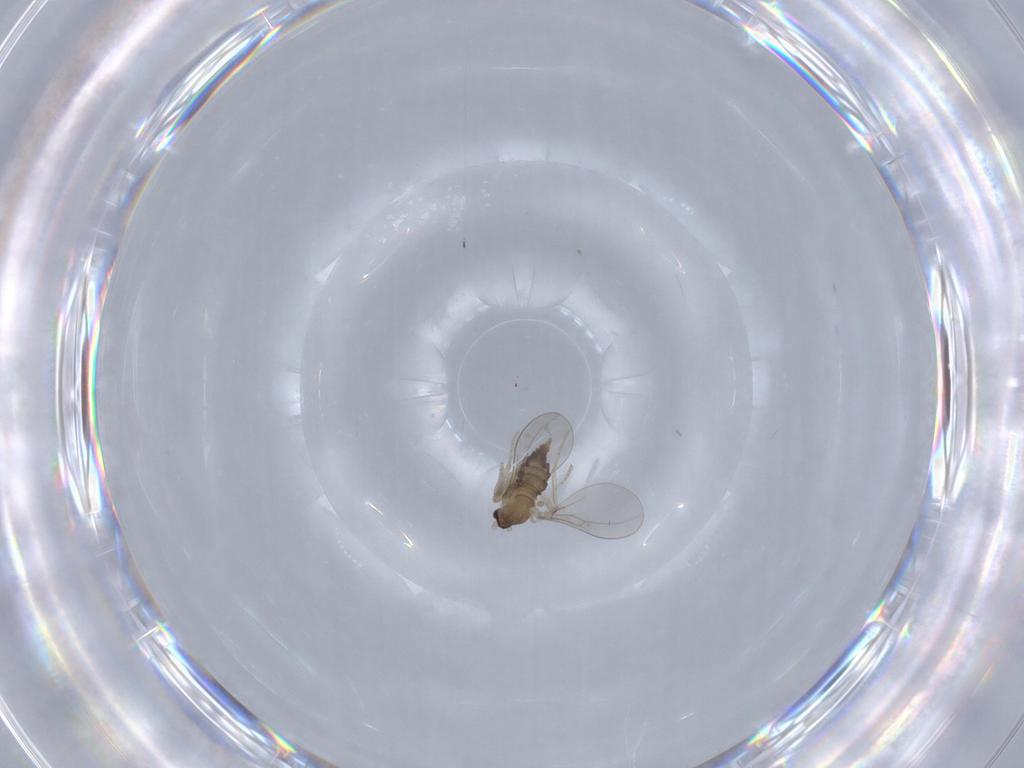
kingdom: Animalia
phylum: Arthropoda
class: Insecta
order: Diptera
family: Cecidomyiidae
